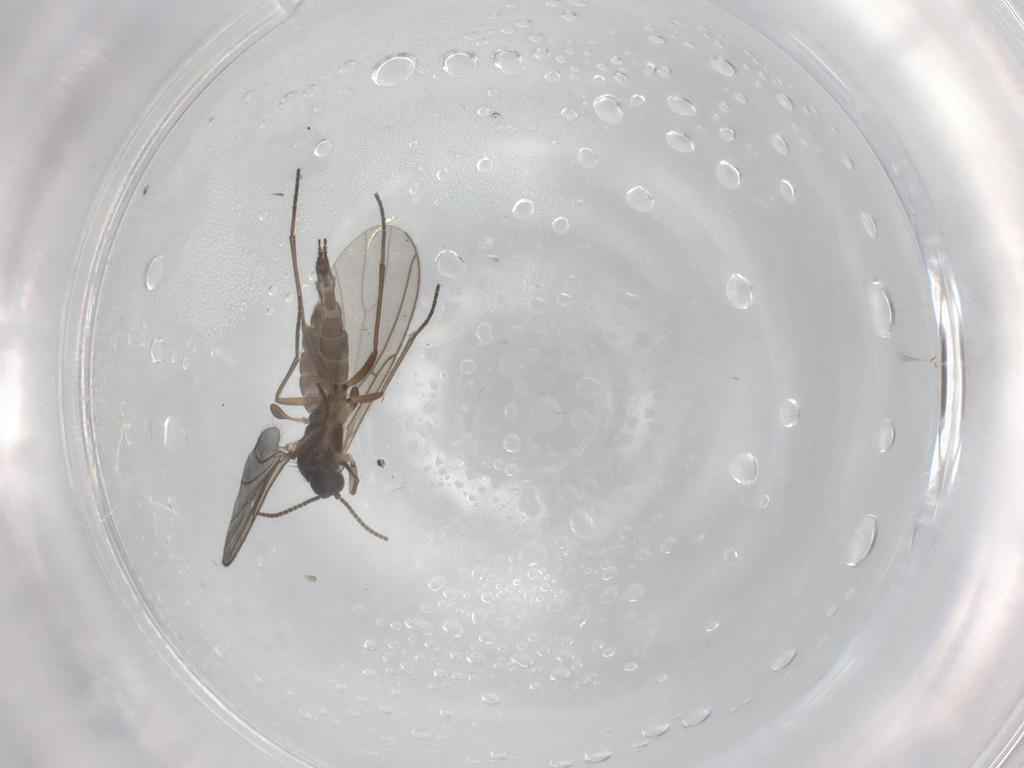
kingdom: Animalia
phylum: Arthropoda
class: Insecta
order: Diptera
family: Sciaridae
